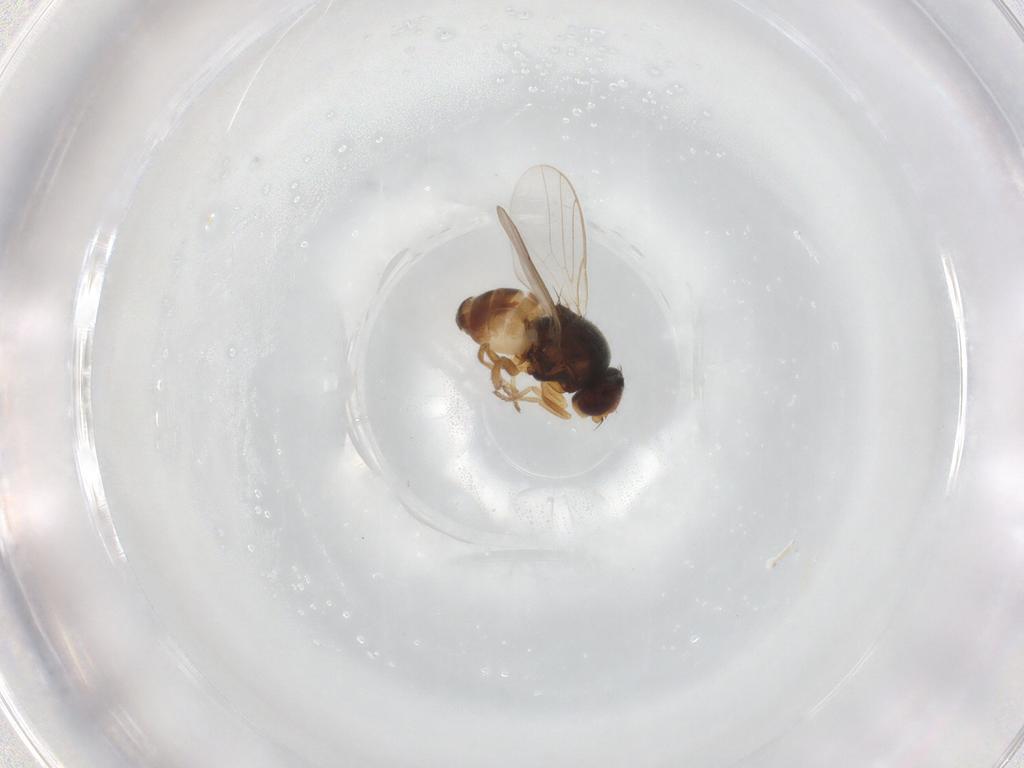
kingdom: Animalia
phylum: Arthropoda
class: Insecta
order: Diptera
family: Chloropidae
